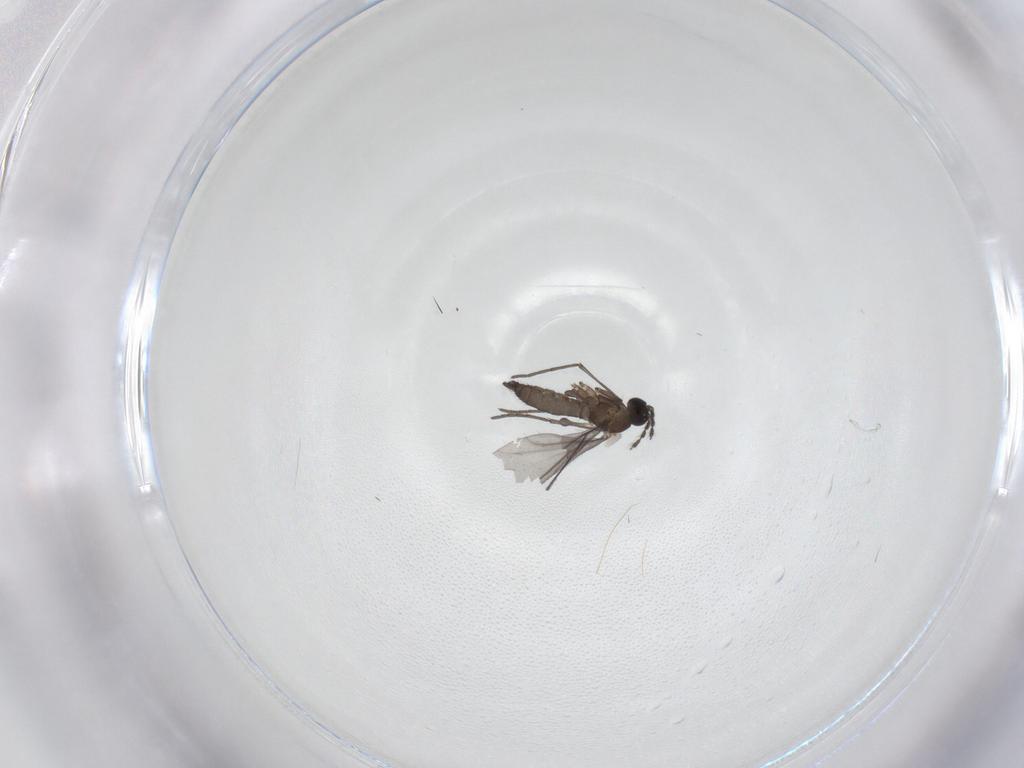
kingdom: Animalia
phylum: Arthropoda
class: Insecta
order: Diptera
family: Sciaridae
